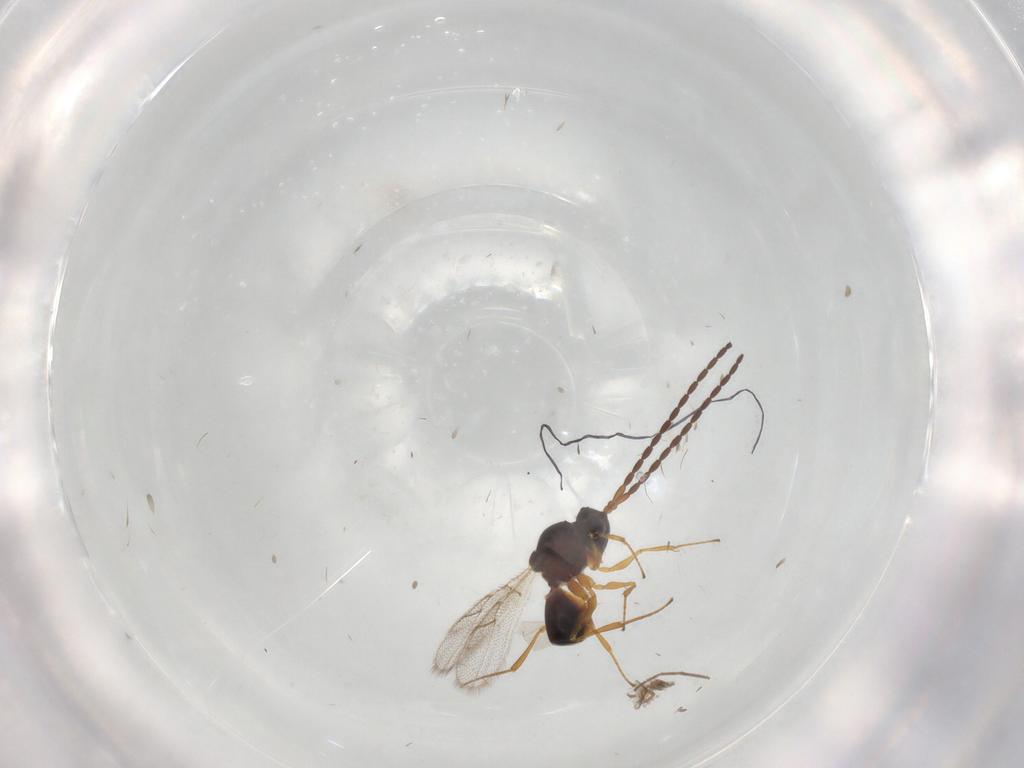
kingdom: Animalia
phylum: Arthropoda
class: Insecta
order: Hymenoptera
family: Figitidae
